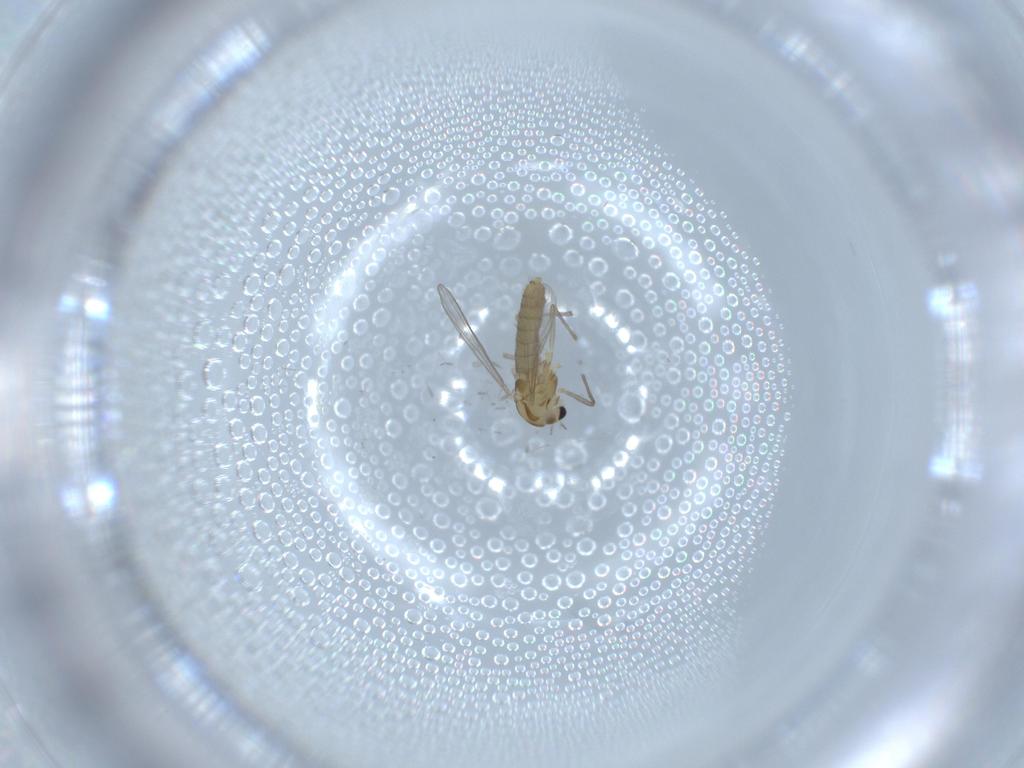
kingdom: Animalia
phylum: Arthropoda
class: Insecta
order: Diptera
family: Chironomidae
